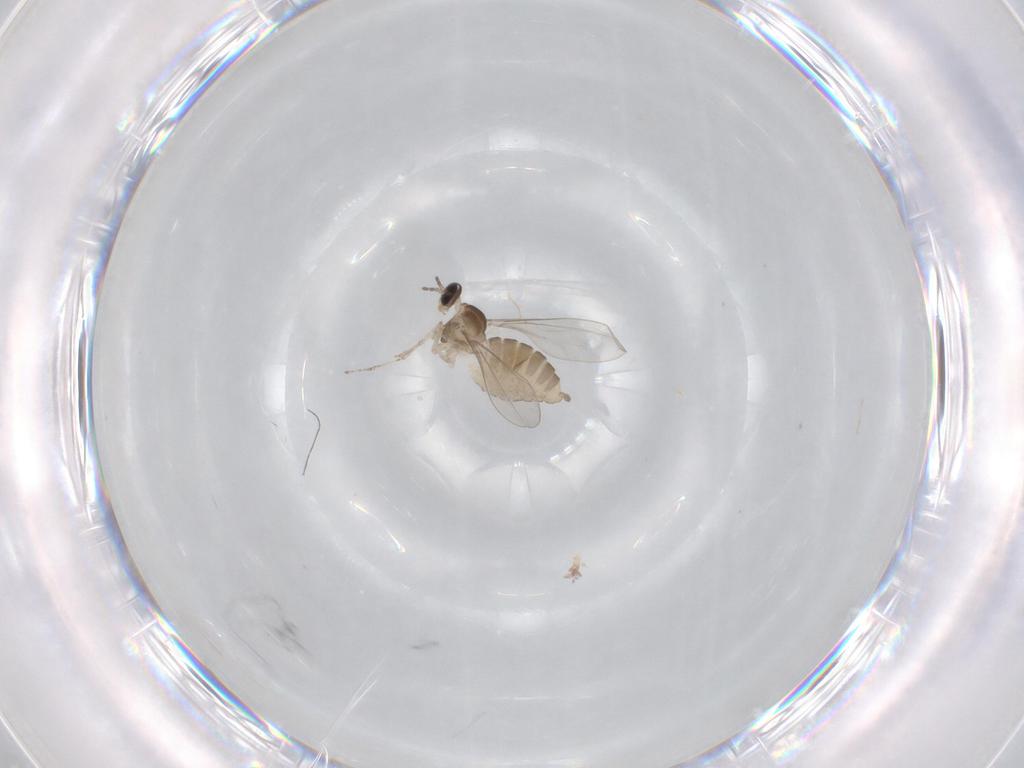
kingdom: Animalia
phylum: Arthropoda
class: Insecta
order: Diptera
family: Cecidomyiidae
